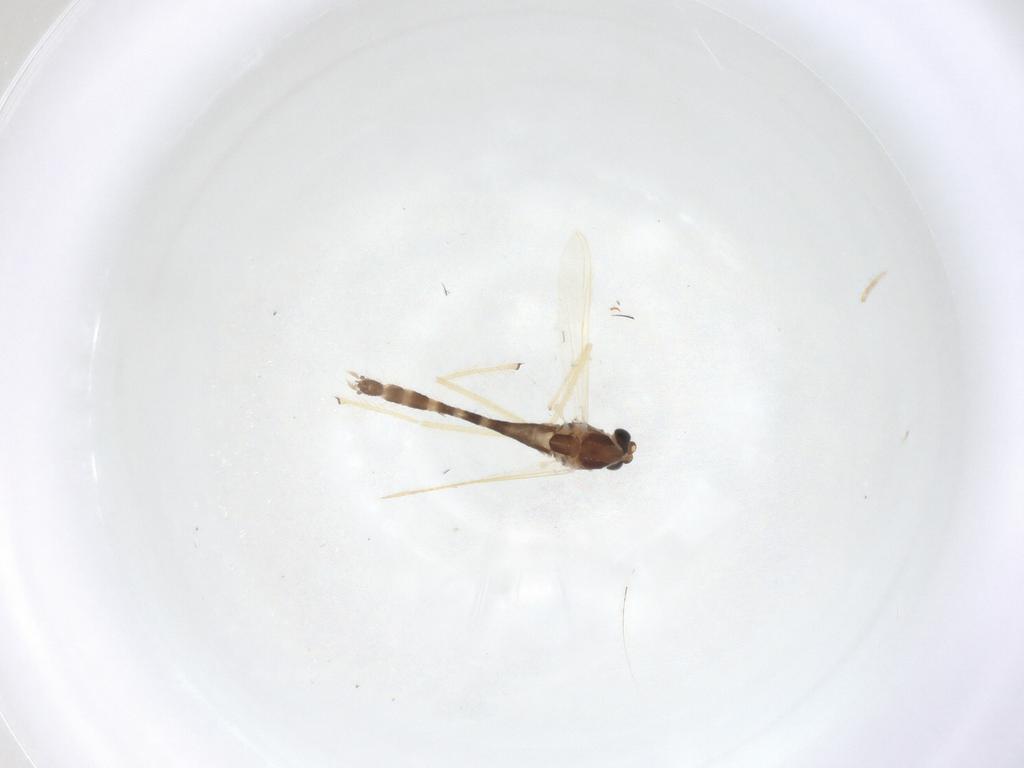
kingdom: Animalia
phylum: Arthropoda
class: Insecta
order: Diptera
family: Chironomidae
